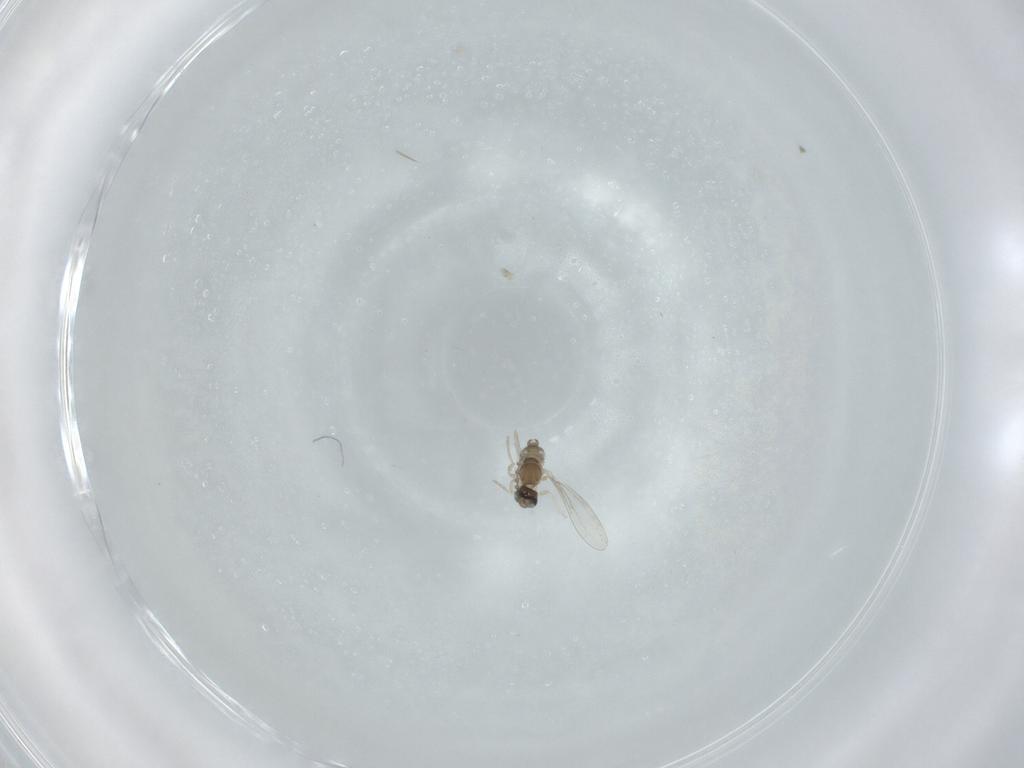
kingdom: Animalia
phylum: Arthropoda
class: Insecta
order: Diptera
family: Cecidomyiidae
